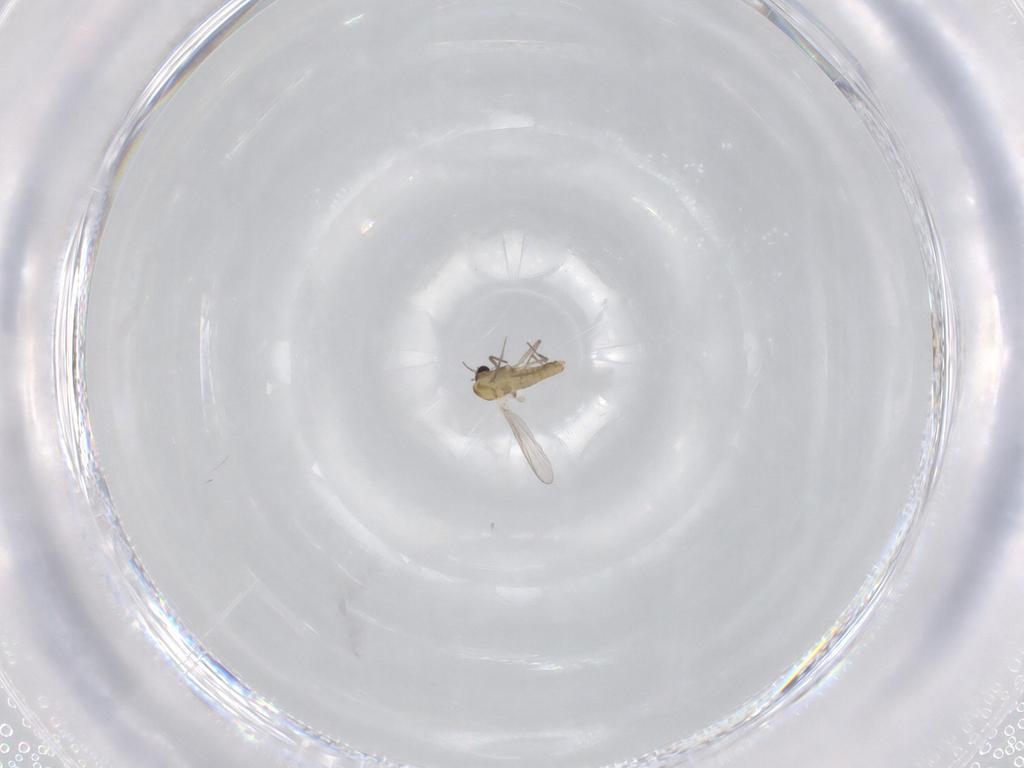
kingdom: Animalia
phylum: Arthropoda
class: Insecta
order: Diptera
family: Chironomidae
